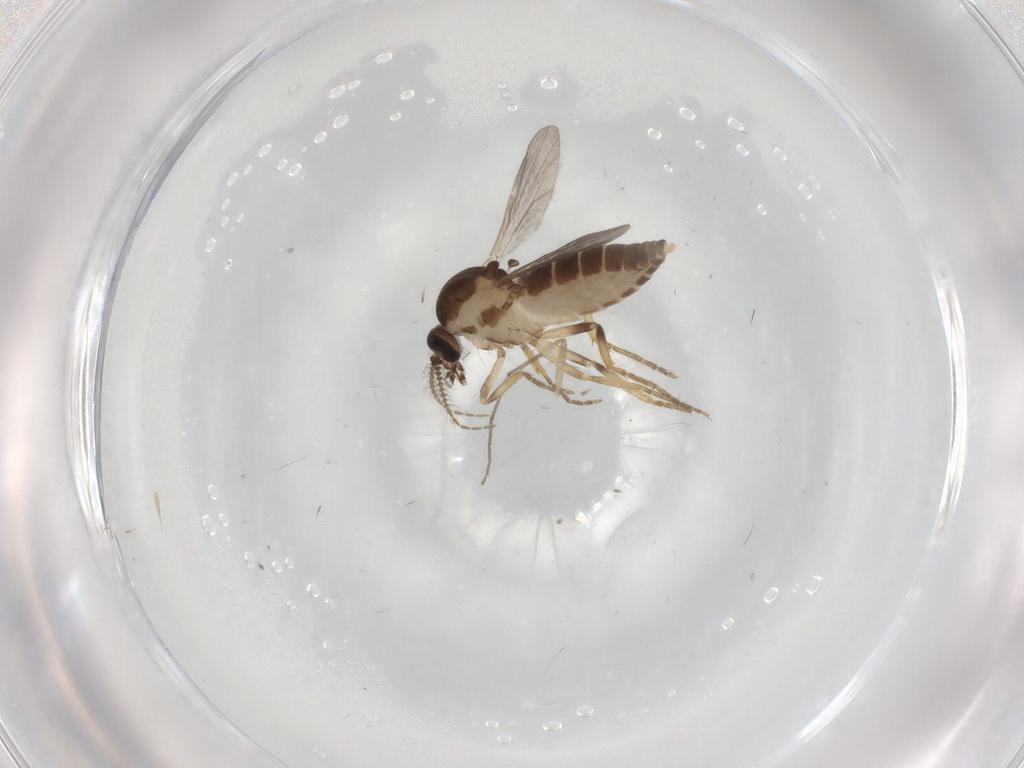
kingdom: Animalia
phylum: Arthropoda
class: Insecta
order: Diptera
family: Ceratopogonidae
